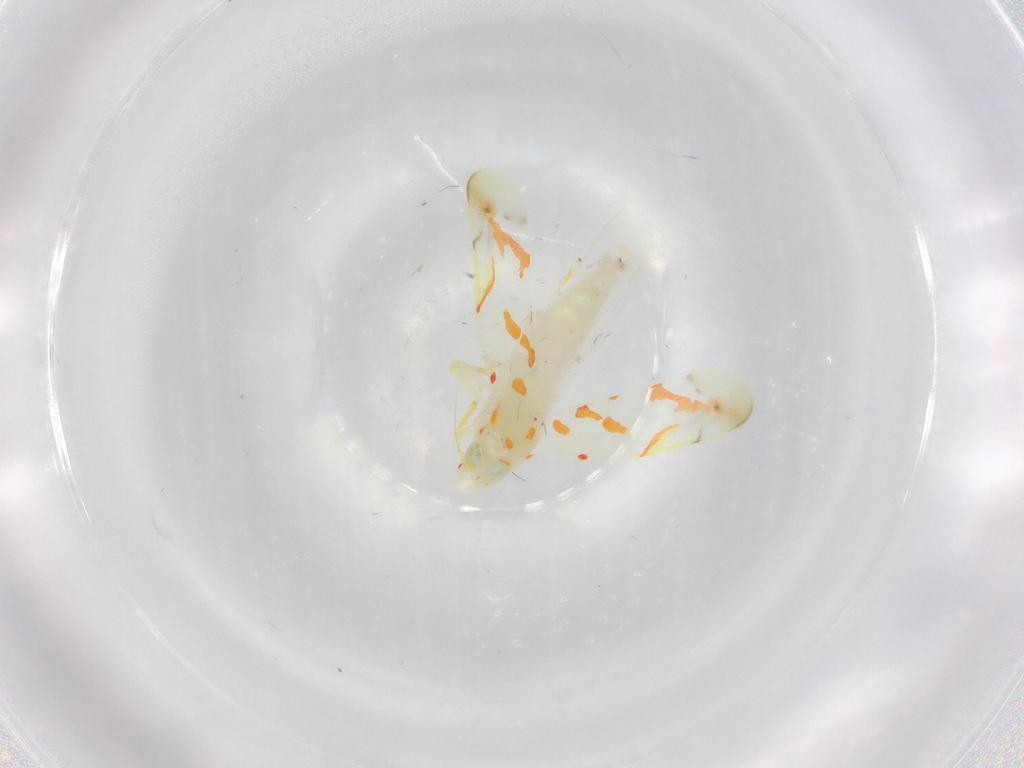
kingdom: Animalia
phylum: Arthropoda
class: Insecta
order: Hemiptera
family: Cicadellidae
